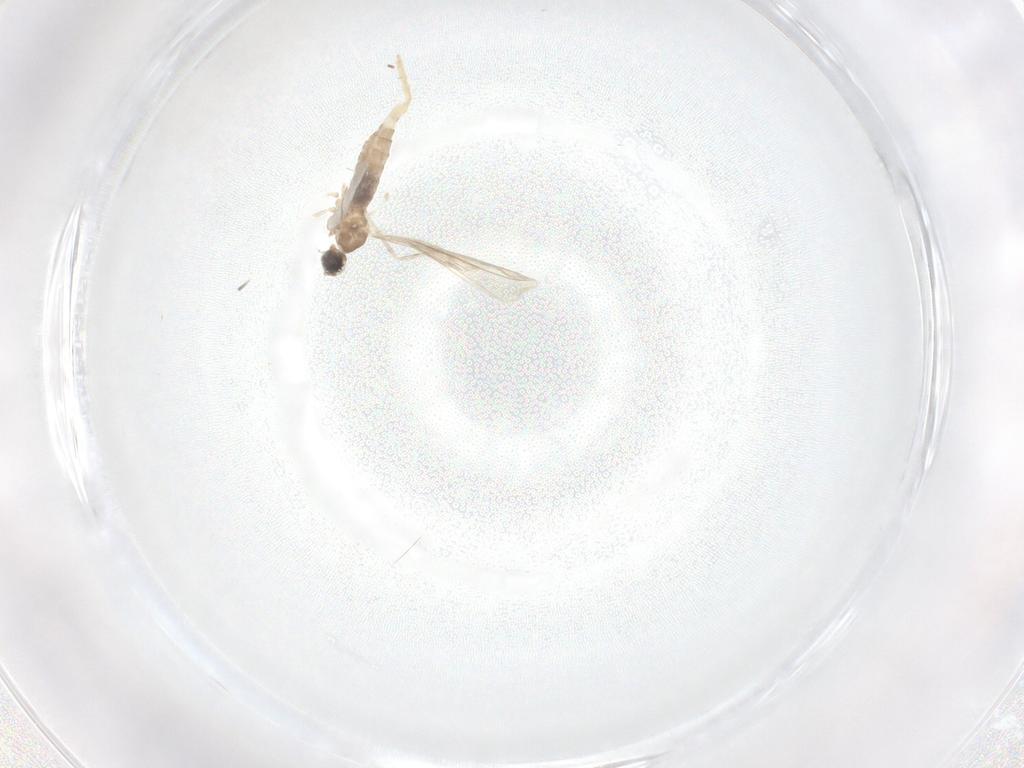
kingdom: Animalia
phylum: Arthropoda
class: Insecta
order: Diptera
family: Cecidomyiidae
